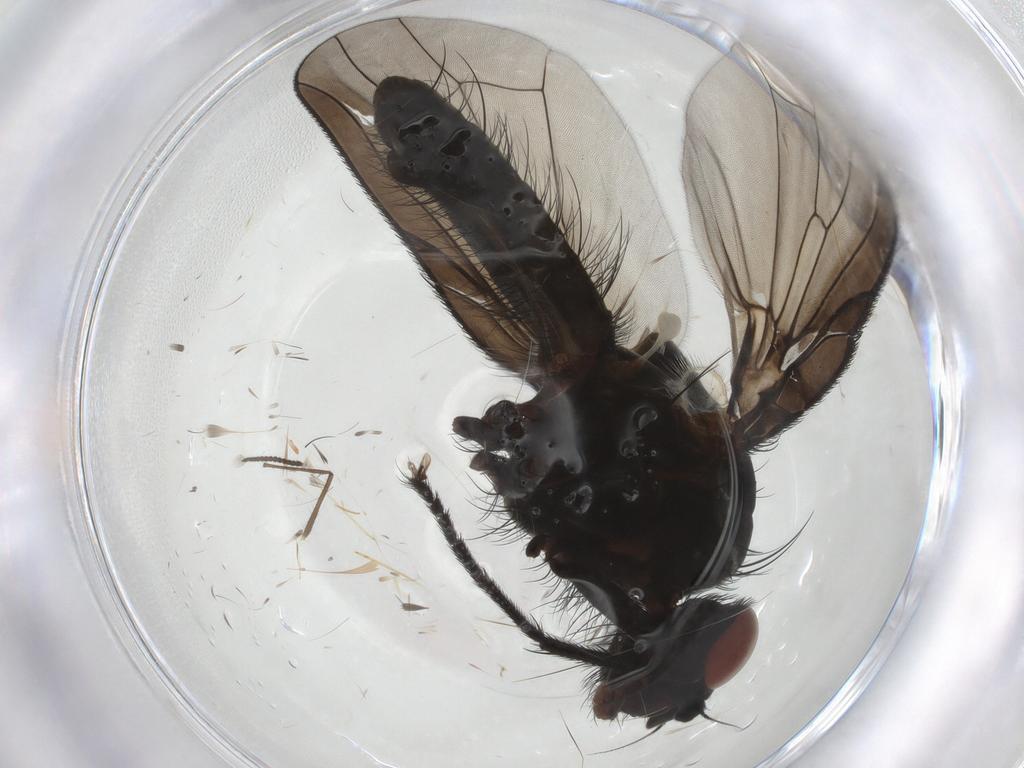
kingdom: Animalia
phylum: Arthropoda
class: Insecta
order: Diptera
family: Anthomyiidae
